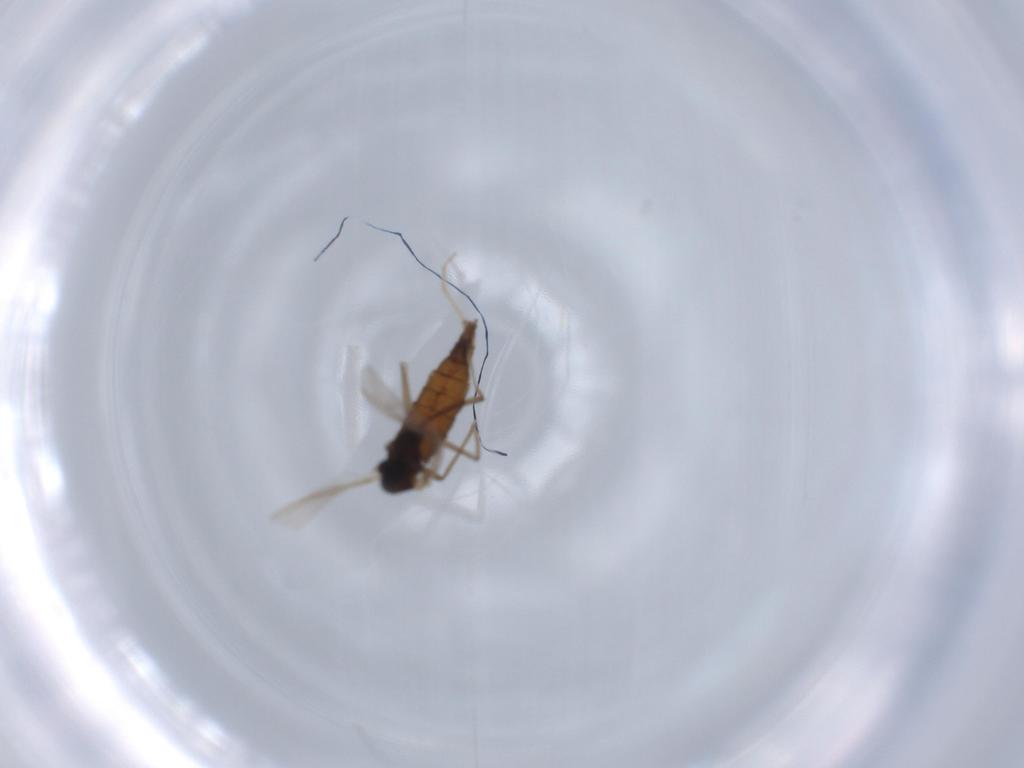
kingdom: Animalia
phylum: Arthropoda
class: Insecta
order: Diptera
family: Chironomidae
